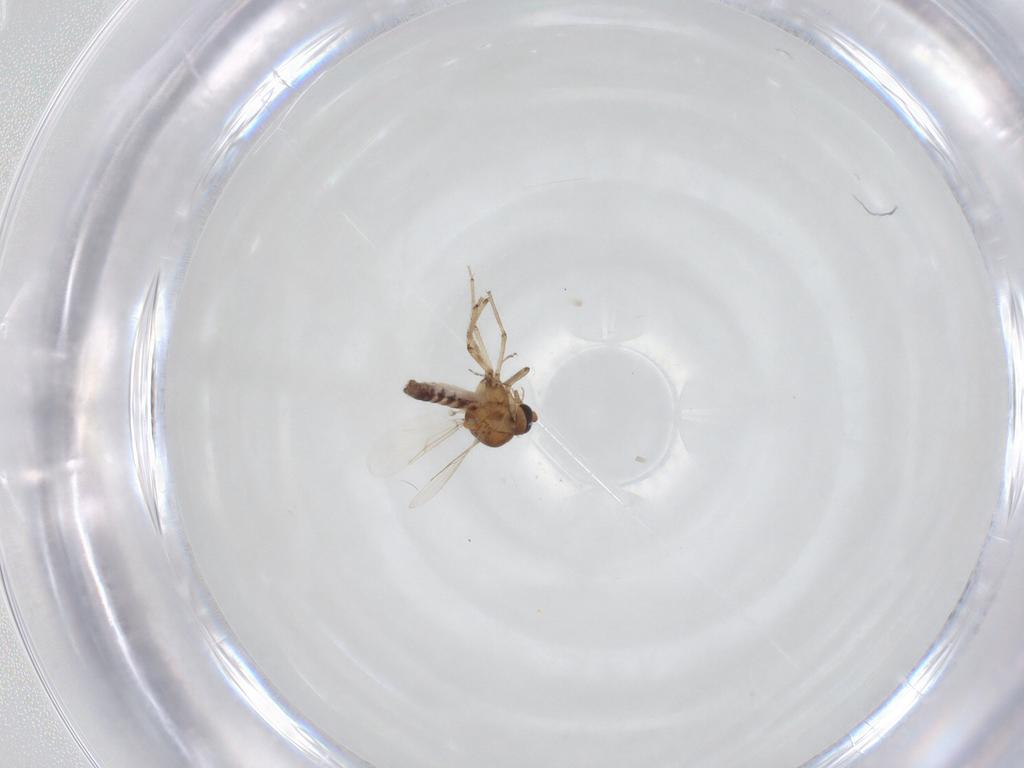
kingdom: Animalia
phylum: Arthropoda
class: Insecta
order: Diptera
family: Ceratopogonidae
